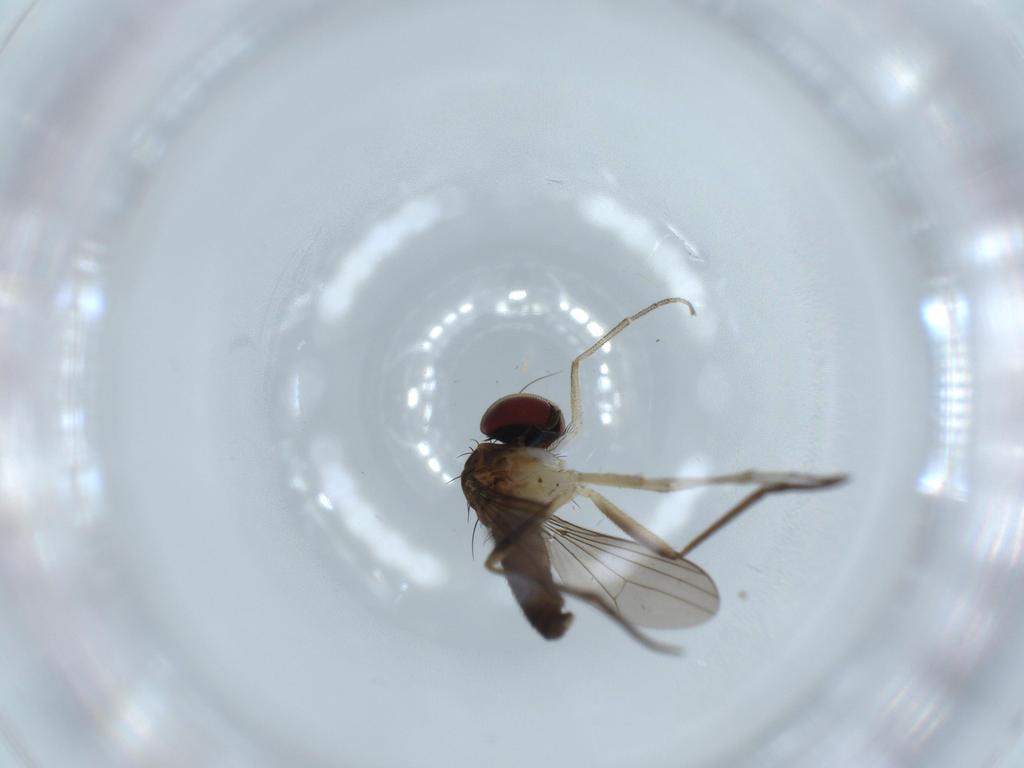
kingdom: Animalia
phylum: Arthropoda
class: Insecta
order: Diptera
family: Dolichopodidae
